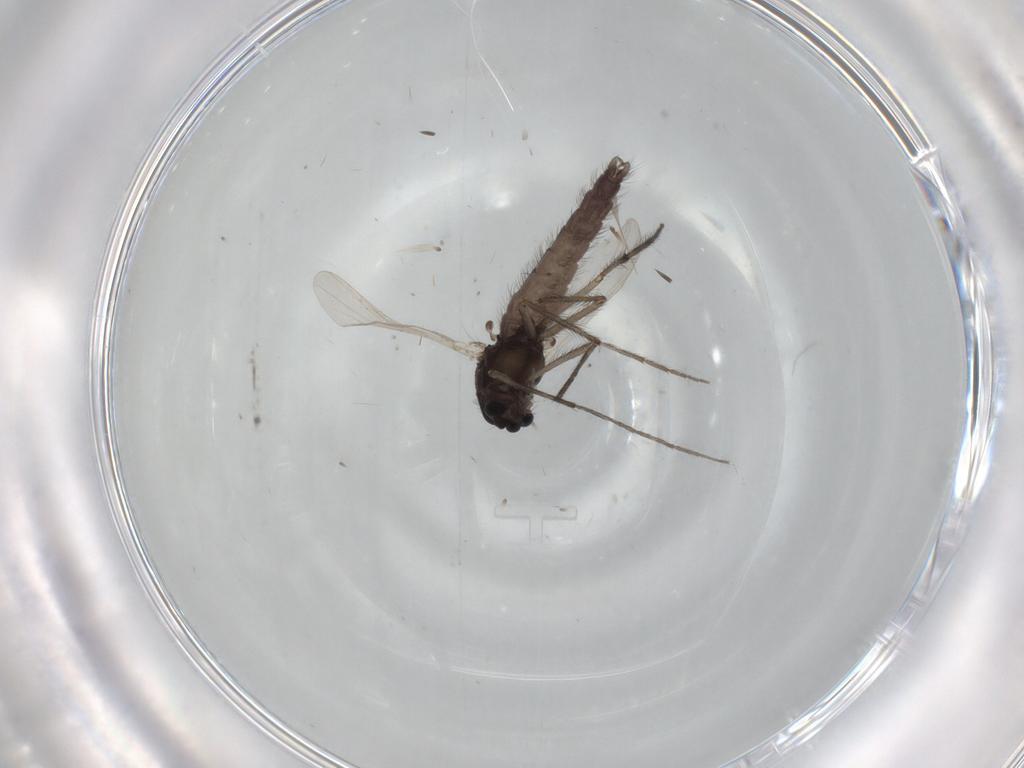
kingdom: Animalia
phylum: Arthropoda
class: Insecta
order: Diptera
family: Chironomidae
